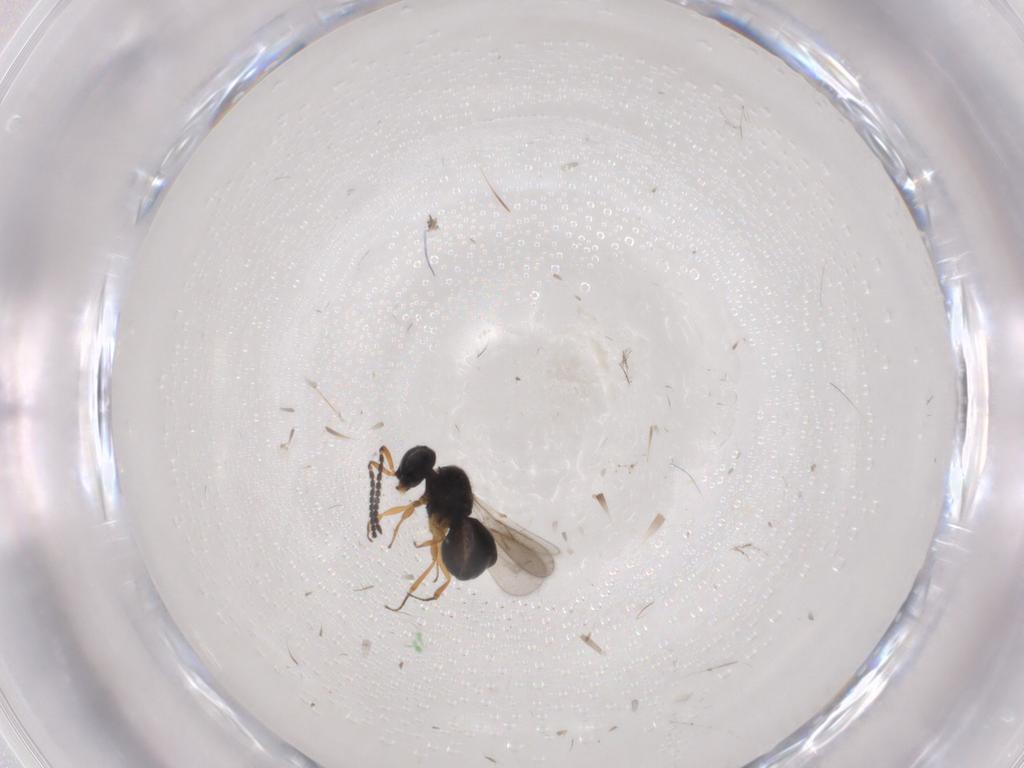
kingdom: Animalia
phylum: Arthropoda
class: Insecta
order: Hymenoptera
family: Scelionidae
